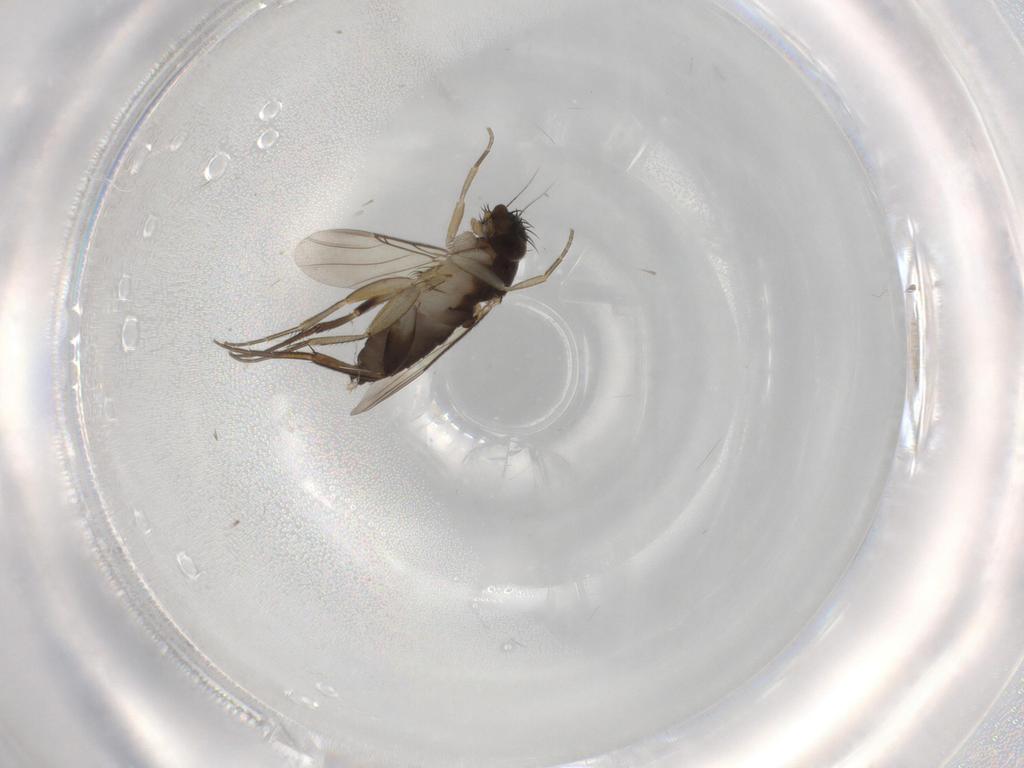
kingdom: Animalia
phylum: Arthropoda
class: Insecta
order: Diptera
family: Phoridae
